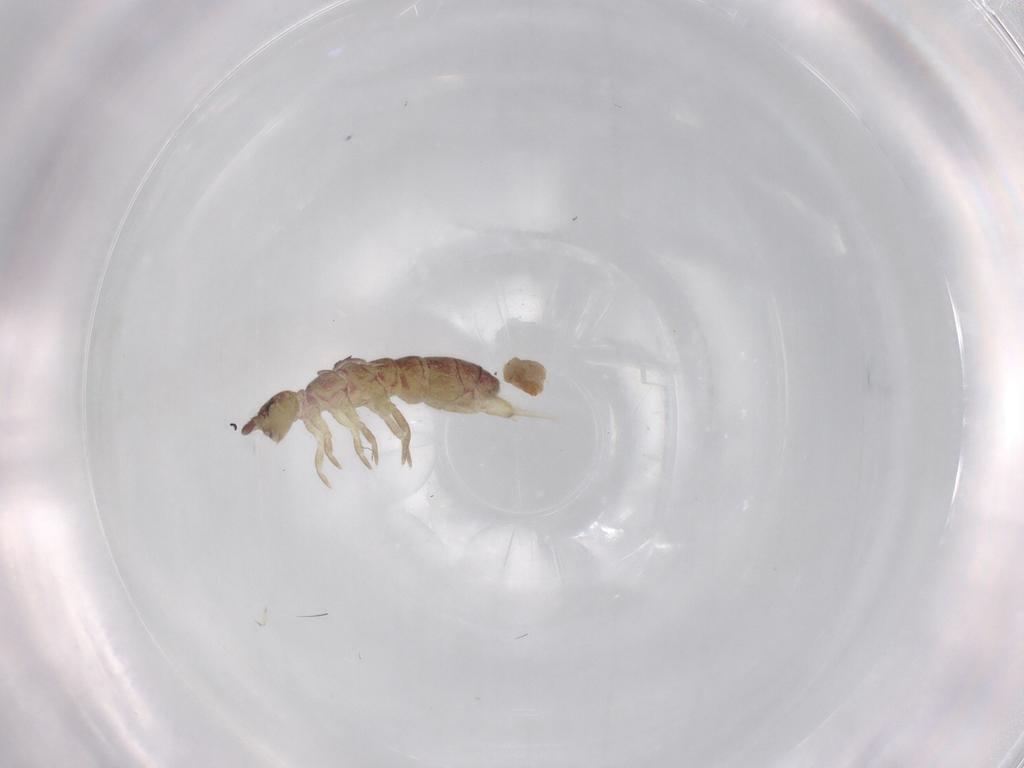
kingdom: Animalia
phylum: Arthropoda
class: Collembola
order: Entomobryomorpha
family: Isotomidae
